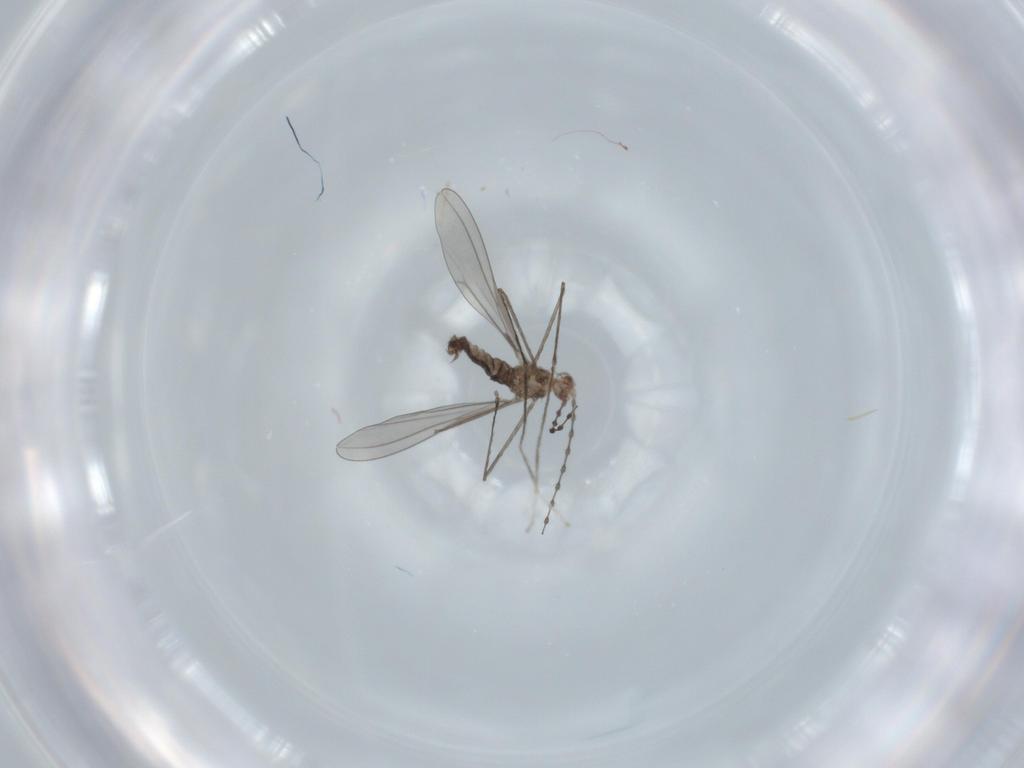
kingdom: Animalia
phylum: Arthropoda
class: Insecta
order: Diptera
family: Cecidomyiidae
